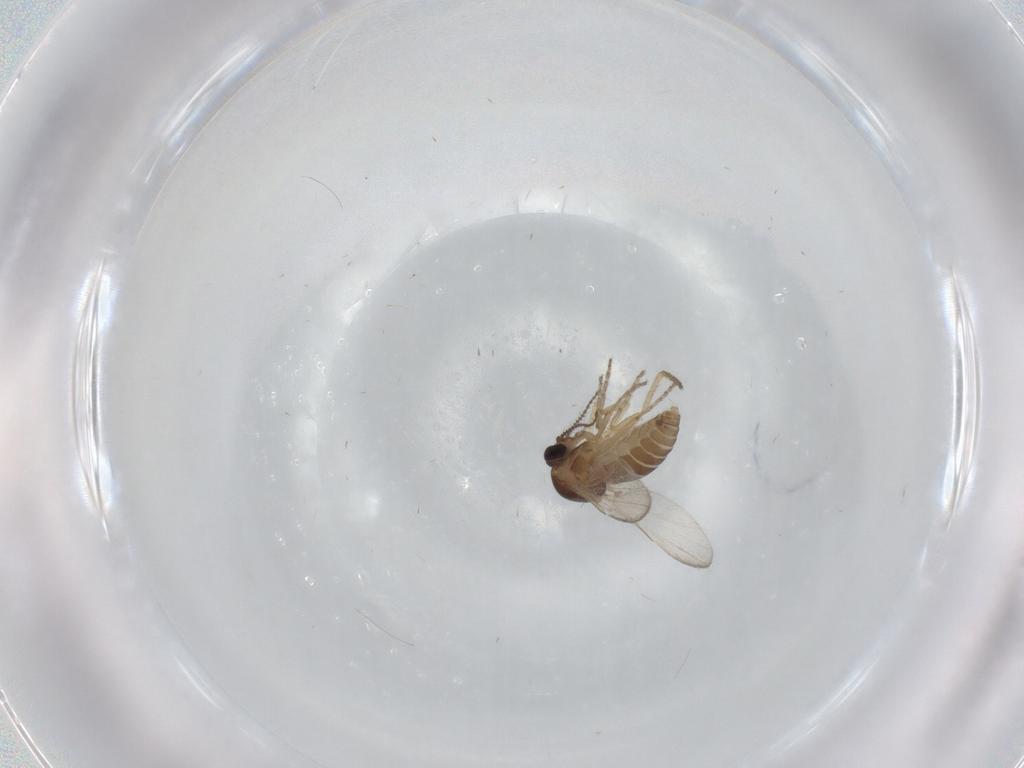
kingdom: Animalia
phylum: Arthropoda
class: Insecta
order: Diptera
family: Ceratopogonidae
